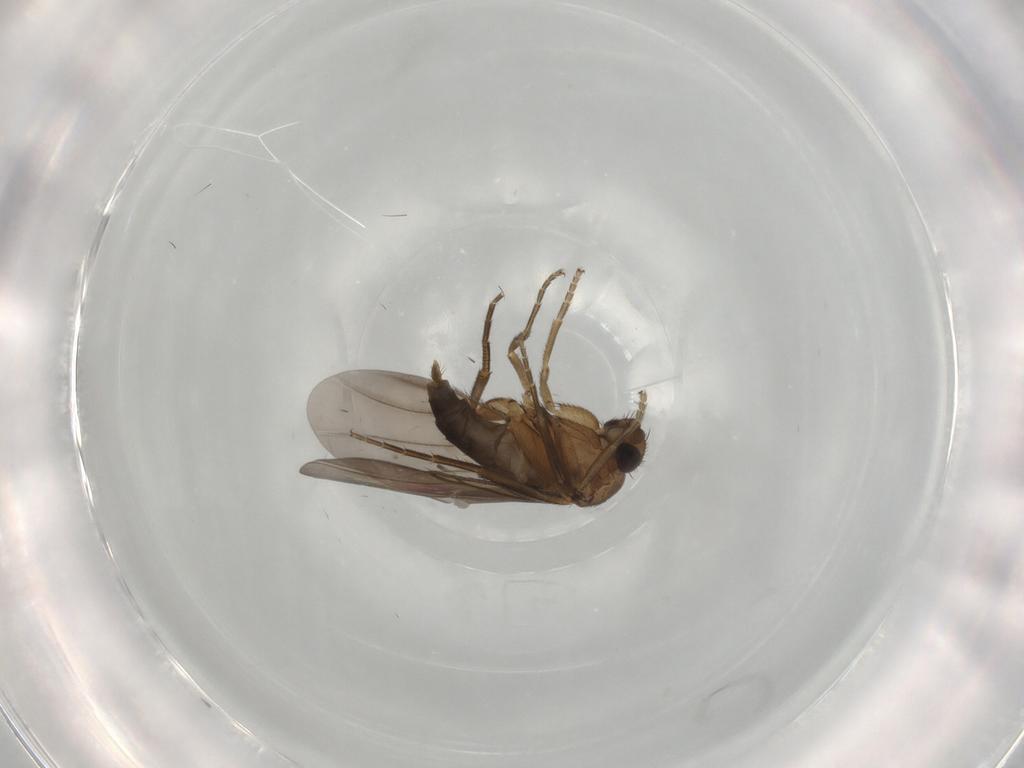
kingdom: Animalia
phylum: Arthropoda
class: Insecta
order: Diptera
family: Phoridae
